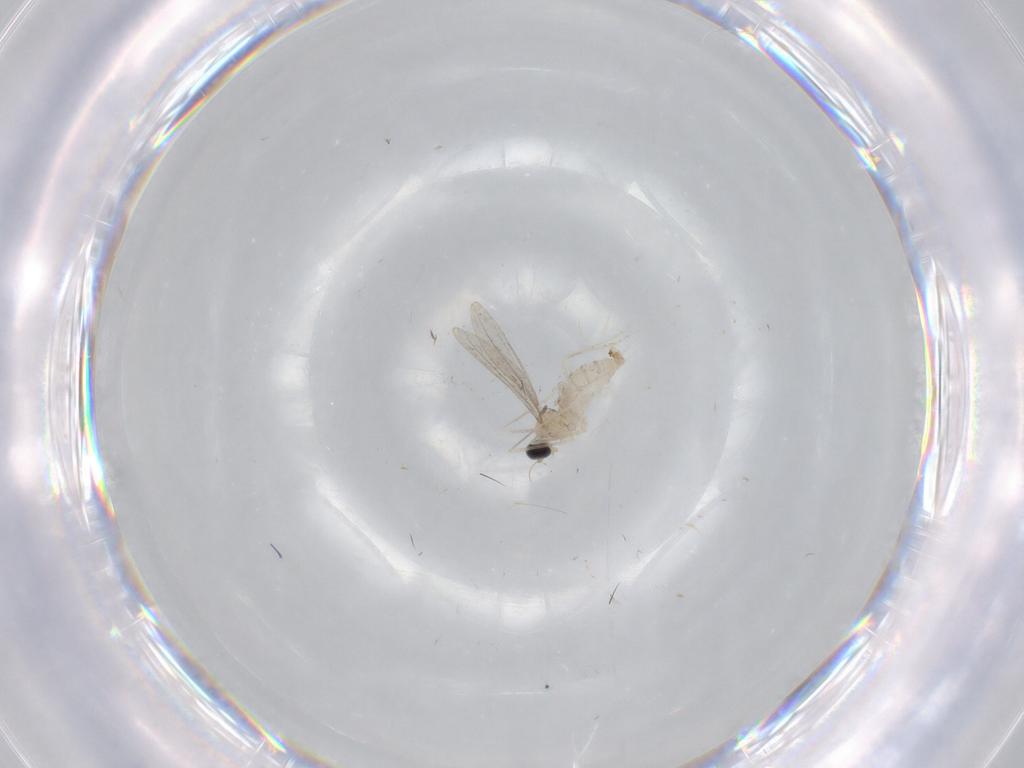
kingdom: Animalia
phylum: Arthropoda
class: Insecta
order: Diptera
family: Cecidomyiidae
